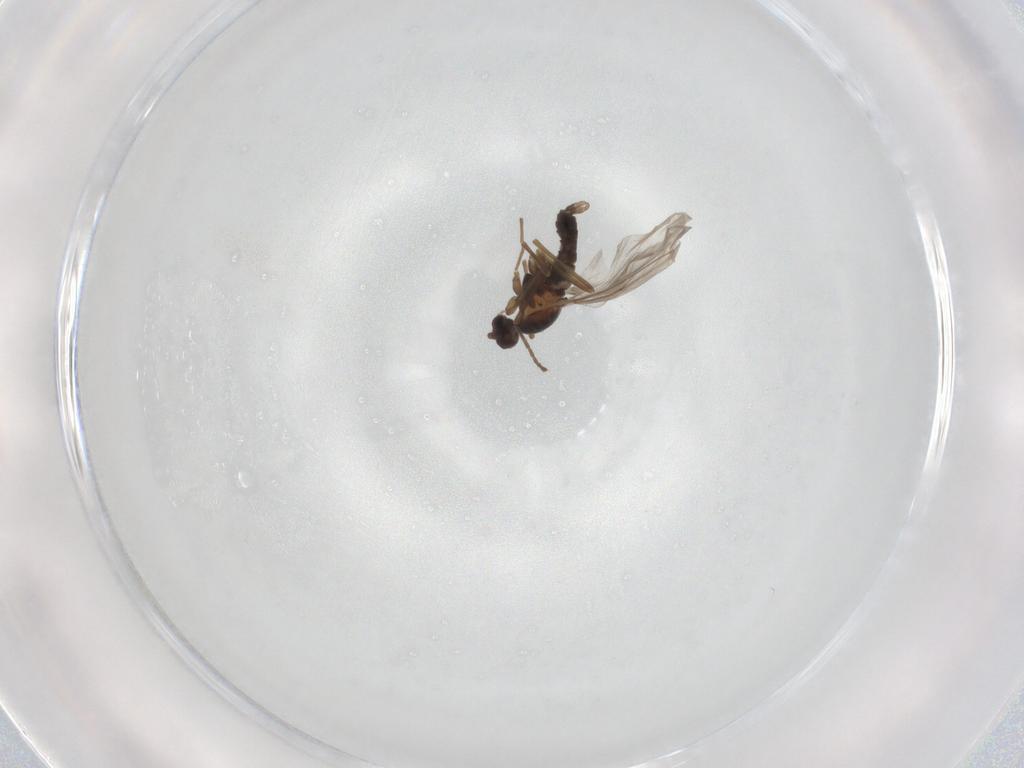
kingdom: Animalia
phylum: Arthropoda
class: Insecta
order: Diptera
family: Cecidomyiidae
